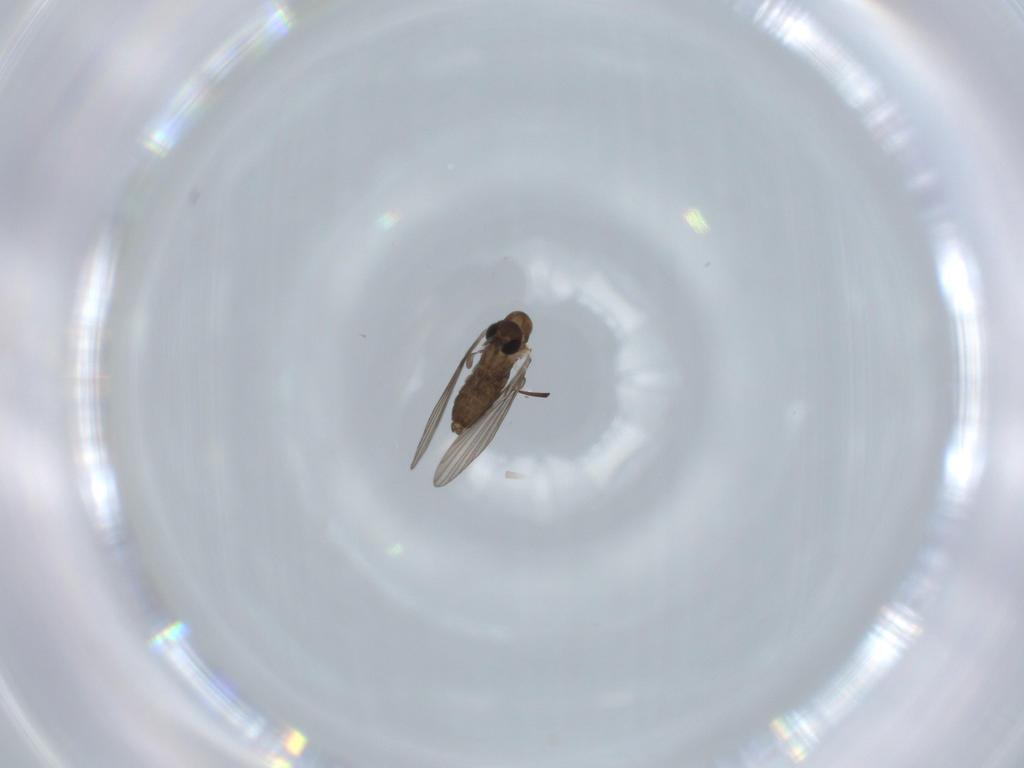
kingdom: Animalia
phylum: Arthropoda
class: Insecta
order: Diptera
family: Psychodidae
